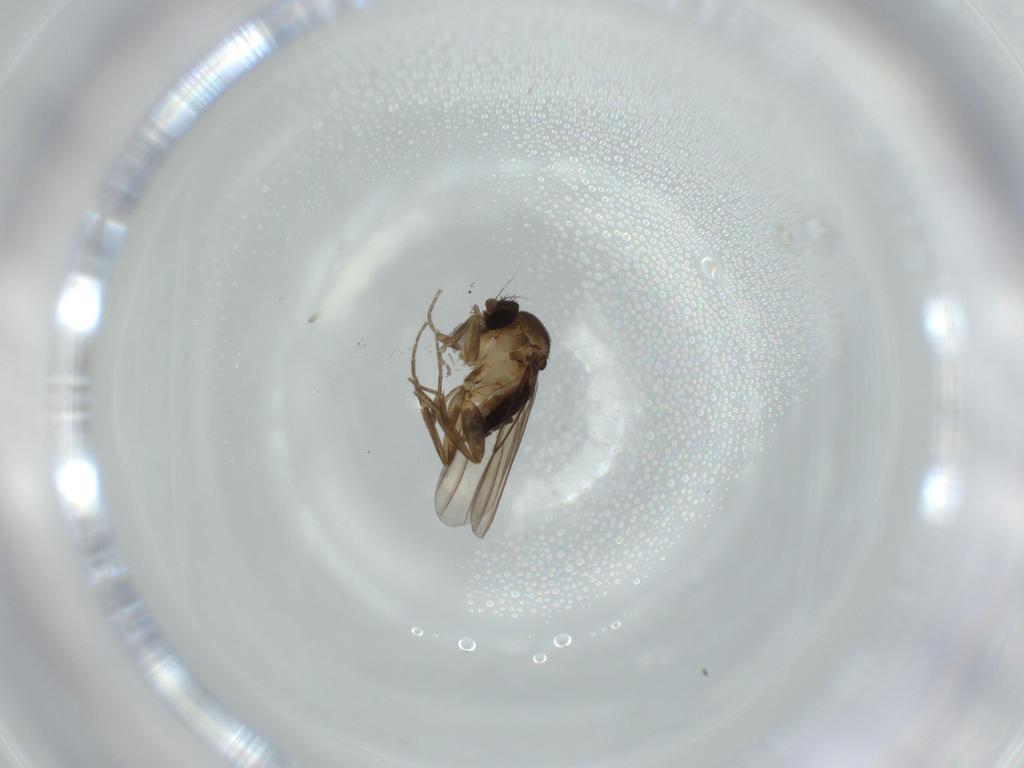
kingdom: Animalia
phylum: Arthropoda
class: Insecta
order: Diptera
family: Phoridae
